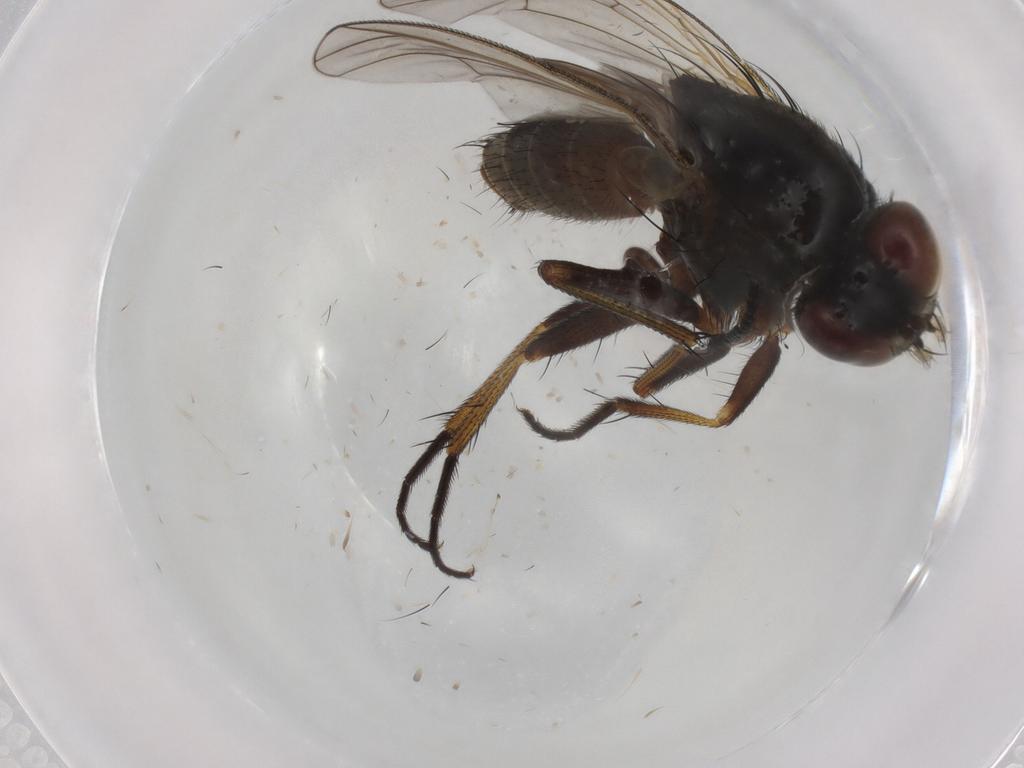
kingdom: Animalia
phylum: Arthropoda
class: Insecta
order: Diptera
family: Muscidae
